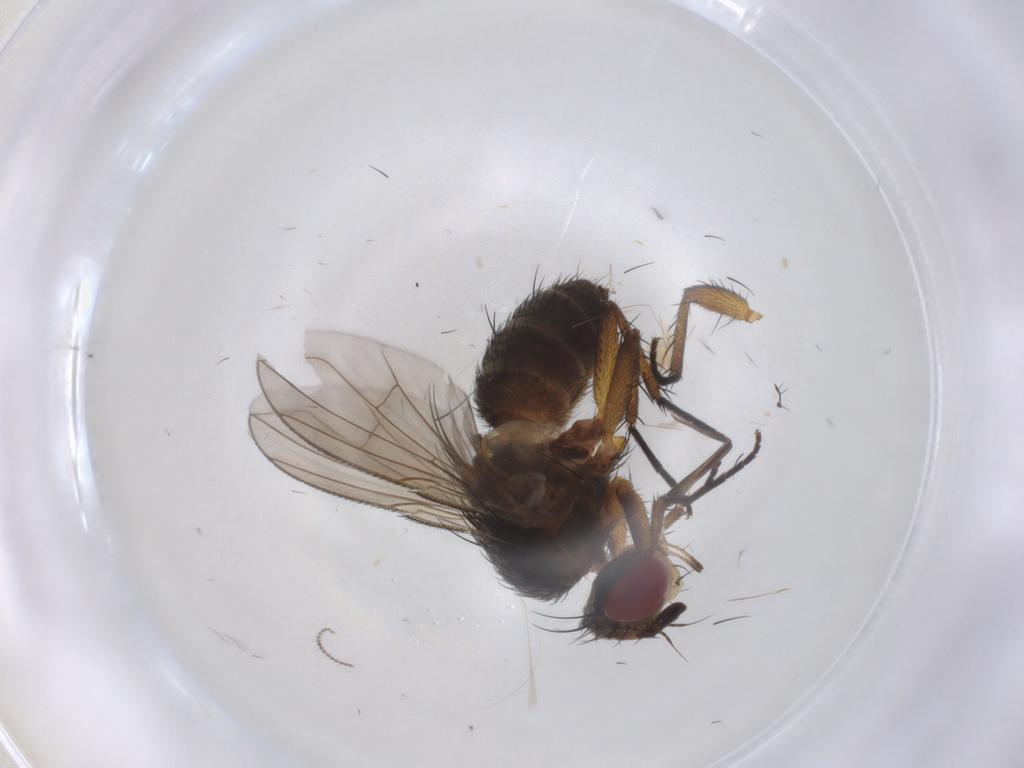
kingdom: Animalia
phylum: Arthropoda
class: Insecta
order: Diptera
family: Tachinidae
